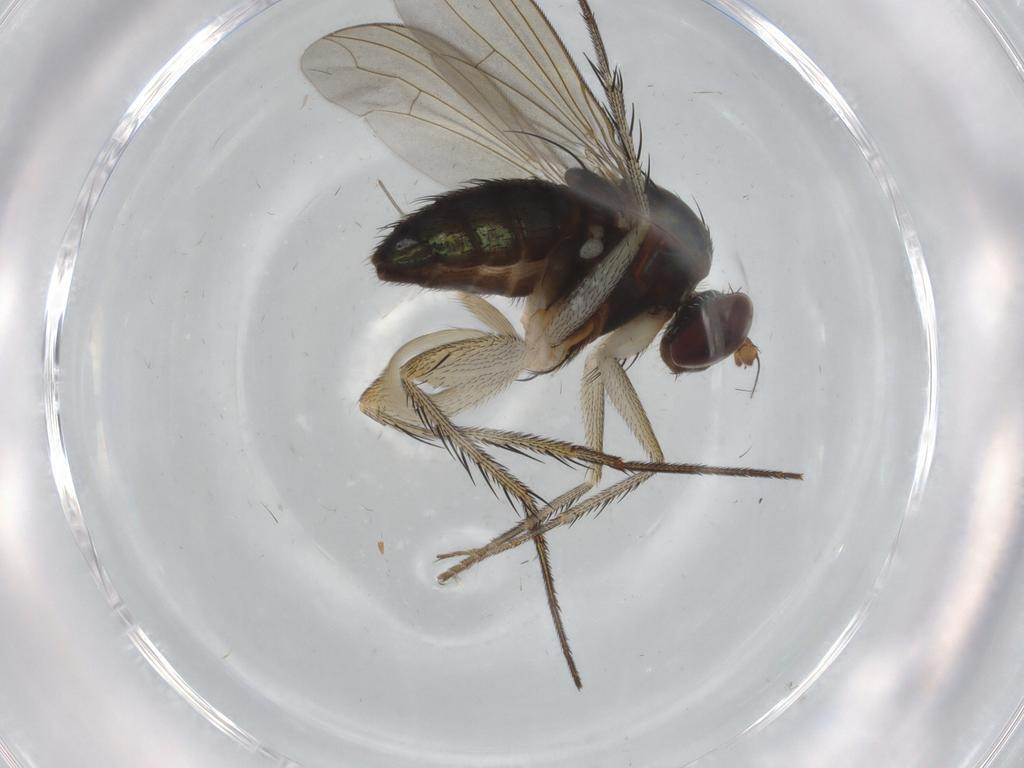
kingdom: Animalia
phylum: Arthropoda
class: Insecta
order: Diptera
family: Dolichopodidae
